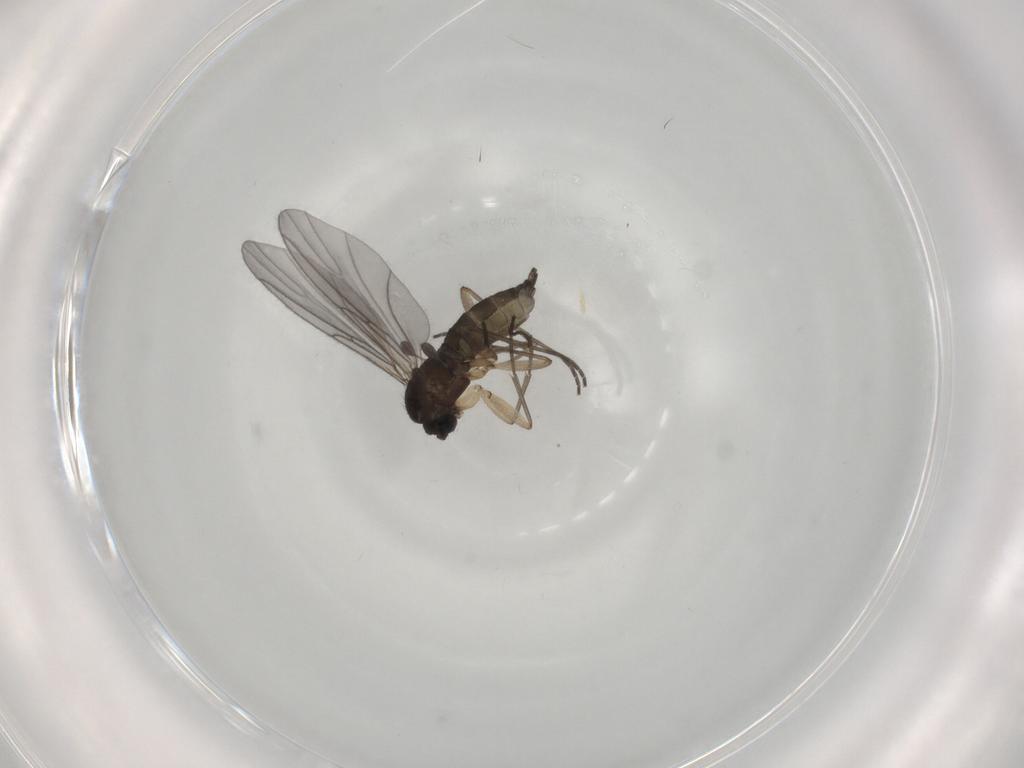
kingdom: Animalia
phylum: Arthropoda
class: Insecta
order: Diptera
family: Sciaridae
